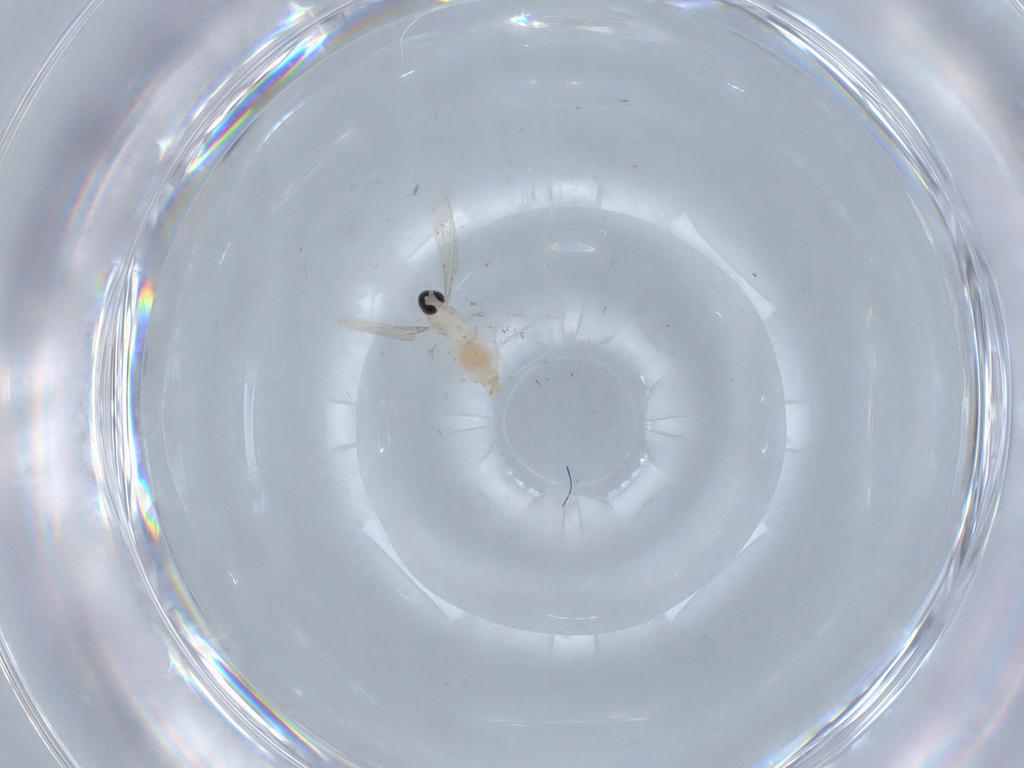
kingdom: Animalia
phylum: Arthropoda
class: Insecta
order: Diptera
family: Cecidomyiidae
